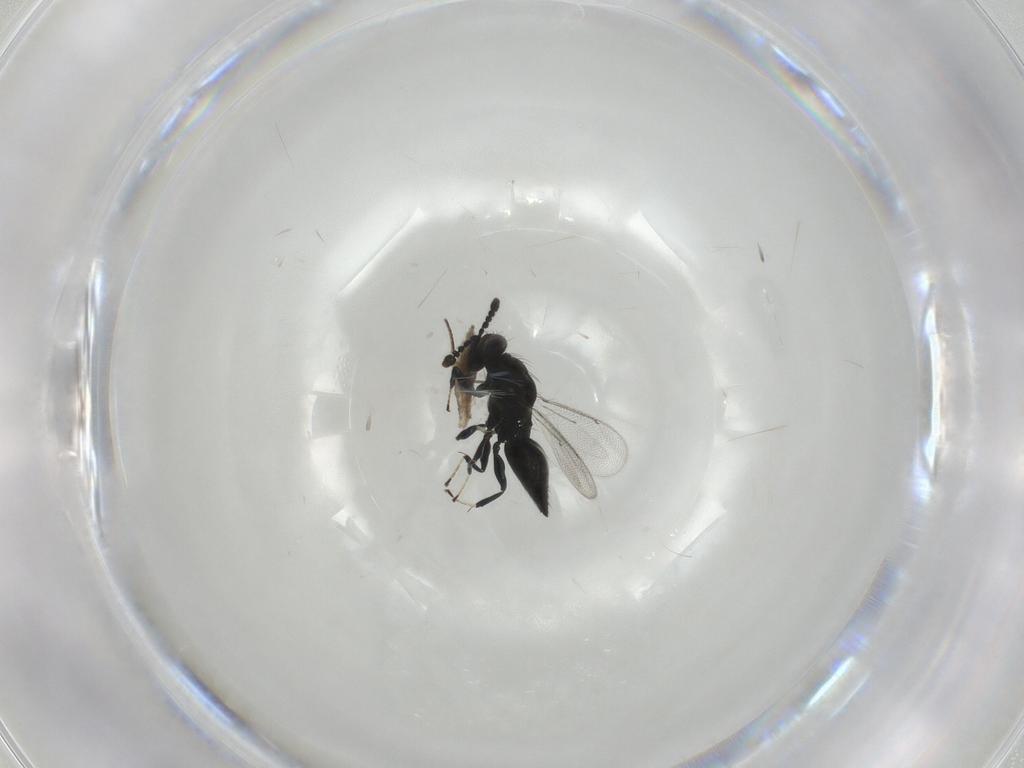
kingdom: Animalia
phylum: Arthropoda
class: Insecta
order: Hymenoptera
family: Eulophidae
